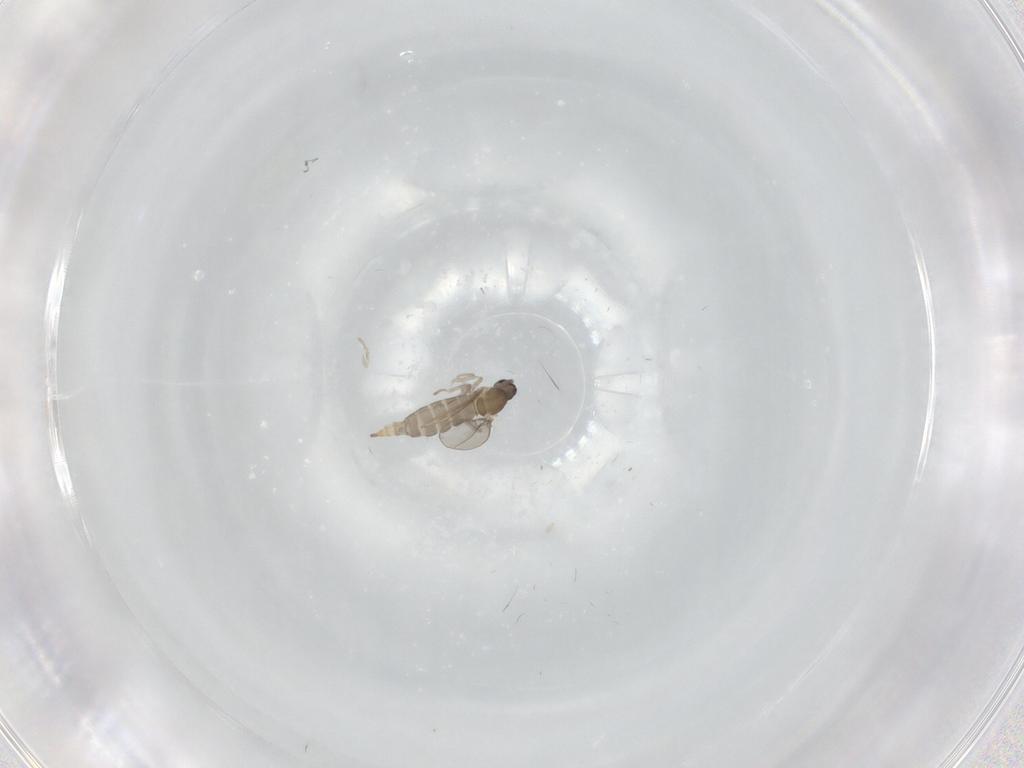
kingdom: Animalia
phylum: Arthropoda
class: Insecta
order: Diptera
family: Cecidomyiidae
